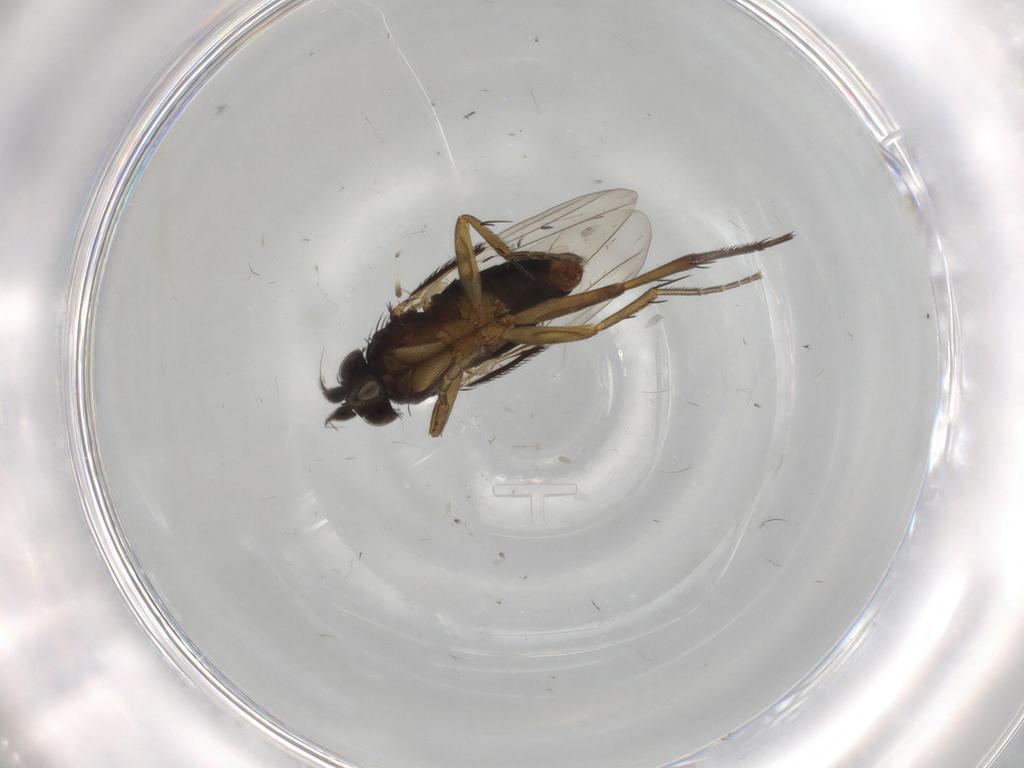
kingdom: Animalia
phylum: Arthropoda
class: Insecta
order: Diptera
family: Phoridae
